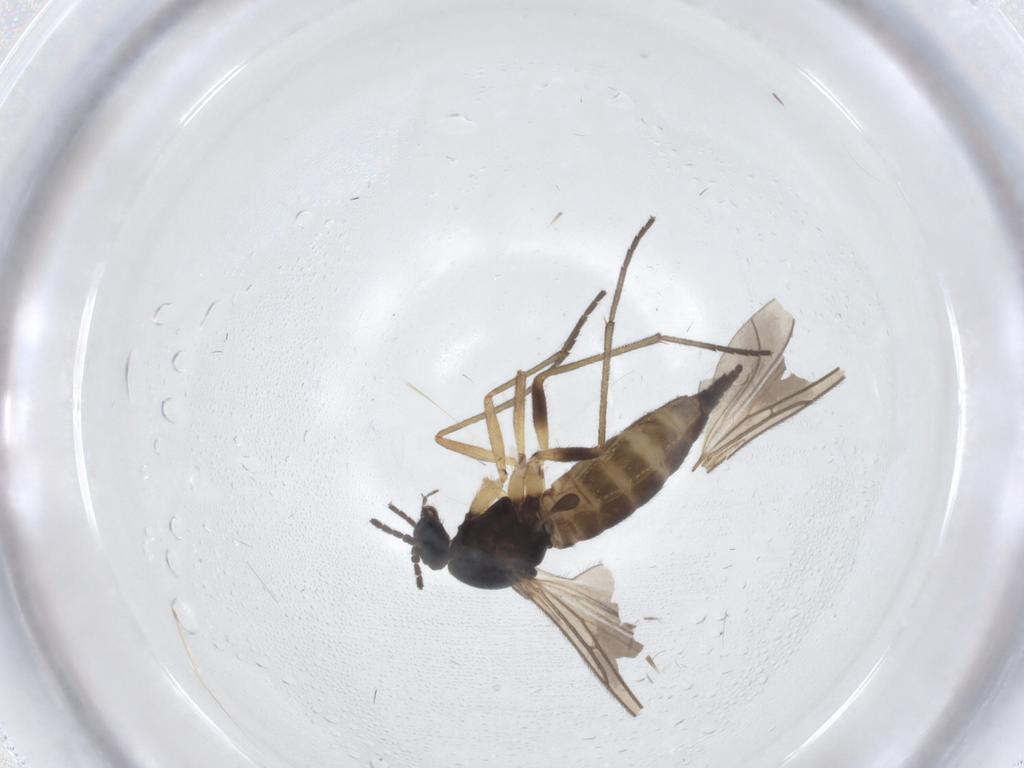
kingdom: Animalia
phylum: Arthropoda
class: Insecta
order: Diptera
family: Sciaridae
